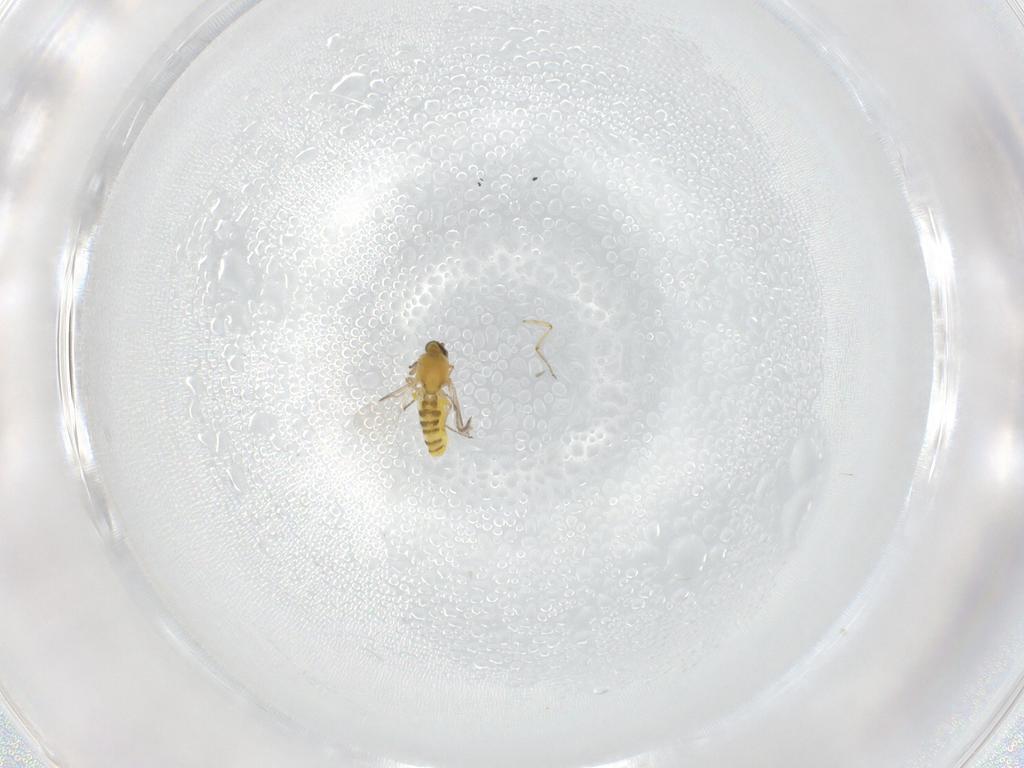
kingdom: Animalia
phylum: Arthropoda
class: Insecta
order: Diptera
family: Ceratopogonidae
